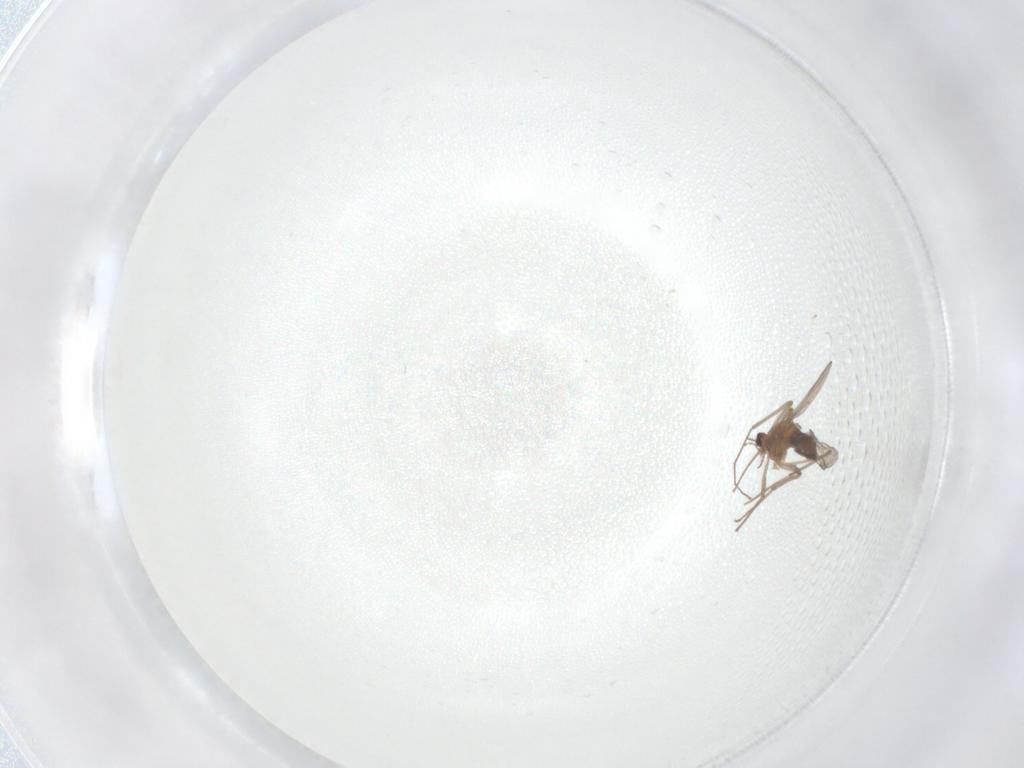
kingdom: Animalia
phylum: Arthropoda
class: Insecta
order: Diptera
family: Chironomidae
